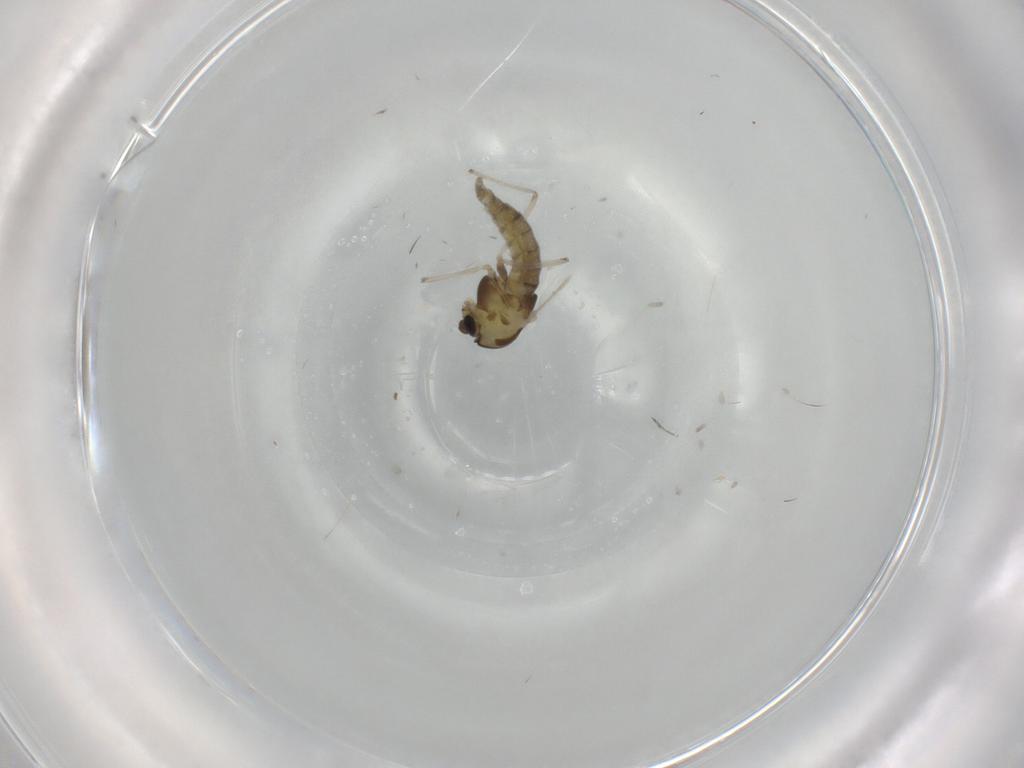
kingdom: Animalia
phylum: Arthropoda
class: Insecta
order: Diptera
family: Chironomidae
